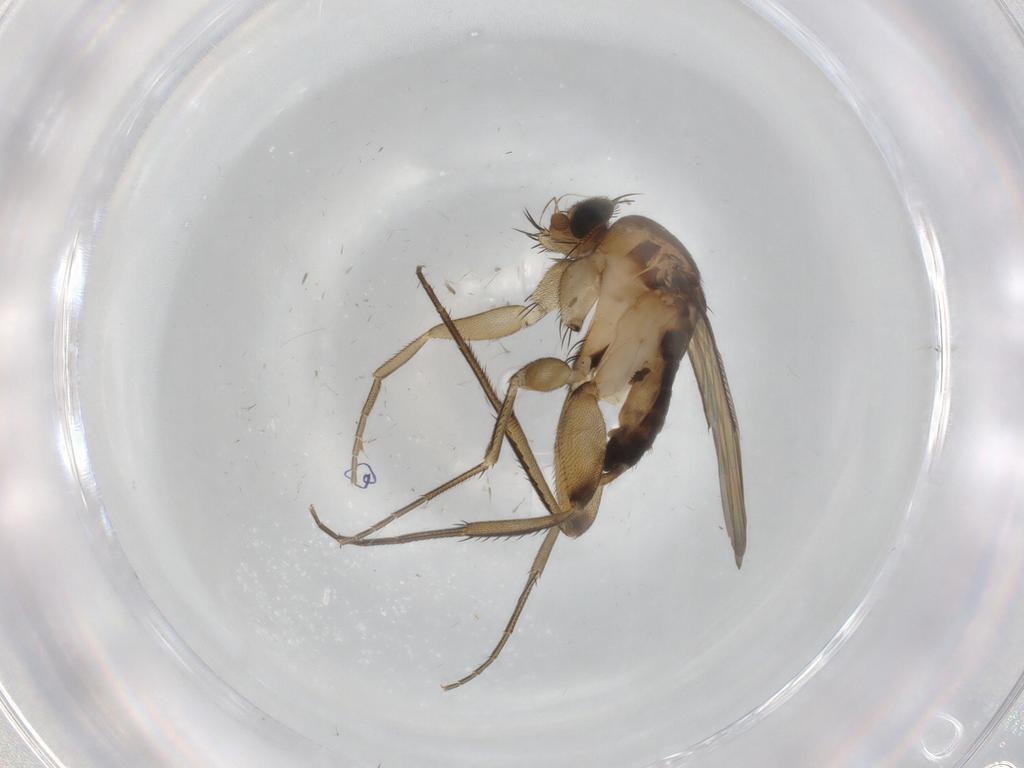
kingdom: Animalia
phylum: Arthropoda
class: Insecta
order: Diptera
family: Phoridae
